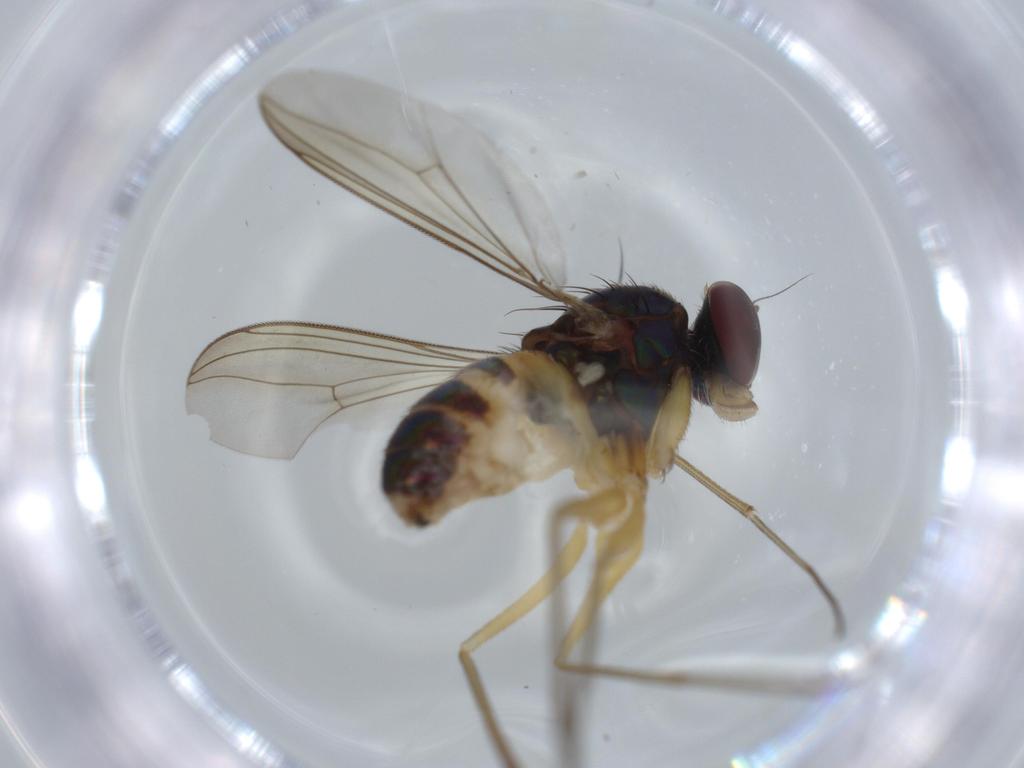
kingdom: Animalia
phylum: Arthropoda
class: Insecta
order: Diptera
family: Dolichopodidae
